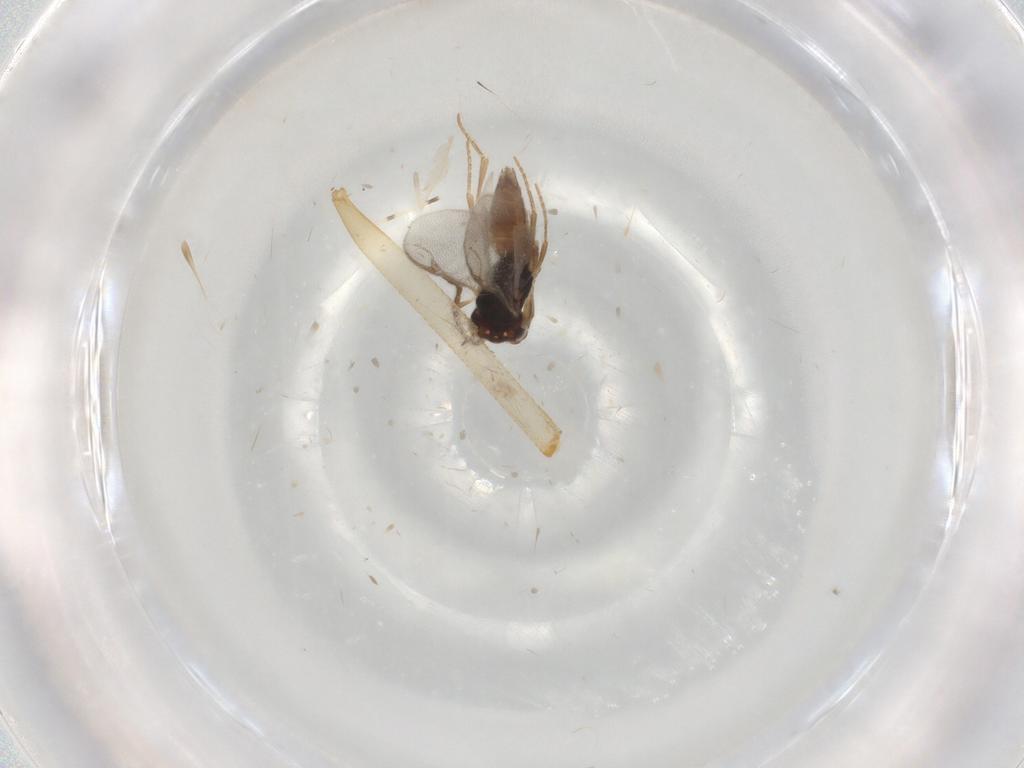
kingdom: Animalia
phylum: Arthropoda
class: Insecta
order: Hymenoptera
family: Dryinidae
